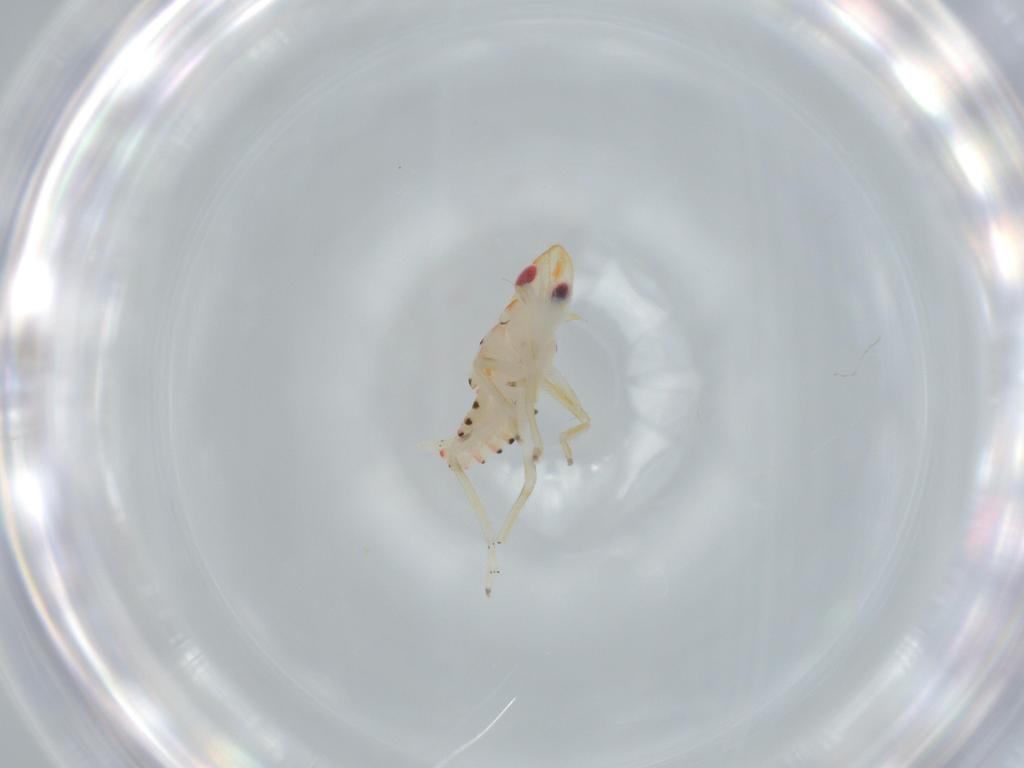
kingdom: Animalia
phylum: Arthropoda
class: Insecta
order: Hemiptera
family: Tropiduchidae
